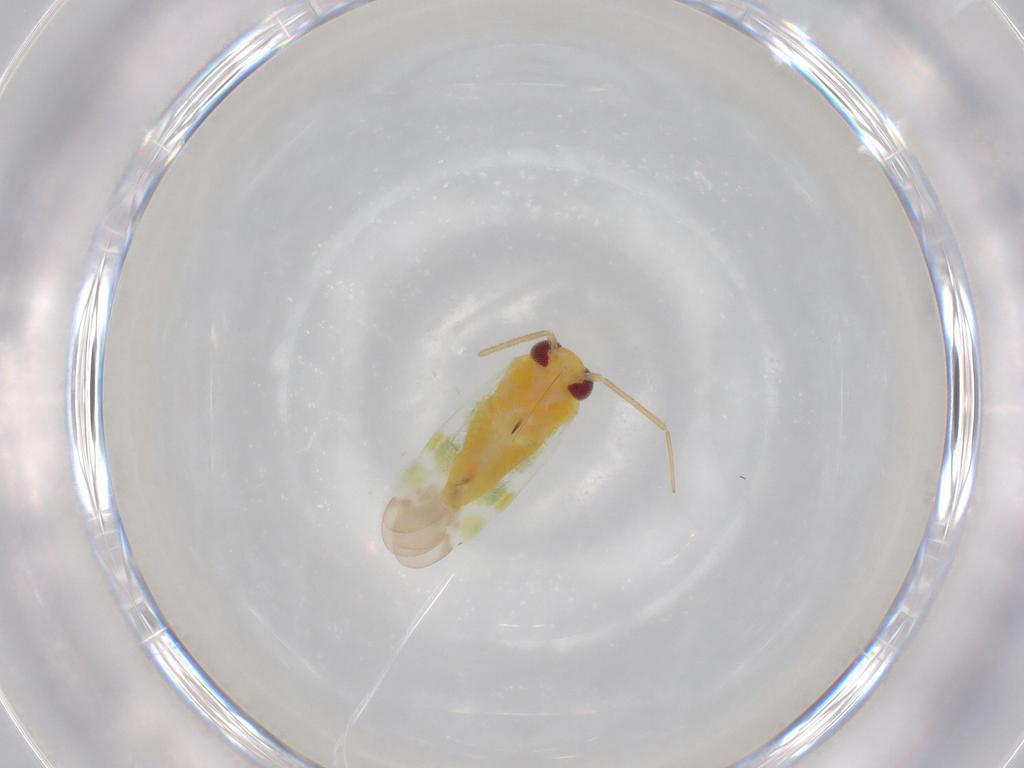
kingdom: Animalia
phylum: Arthropoda
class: Insecta
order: Hemiptera
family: Miridae
